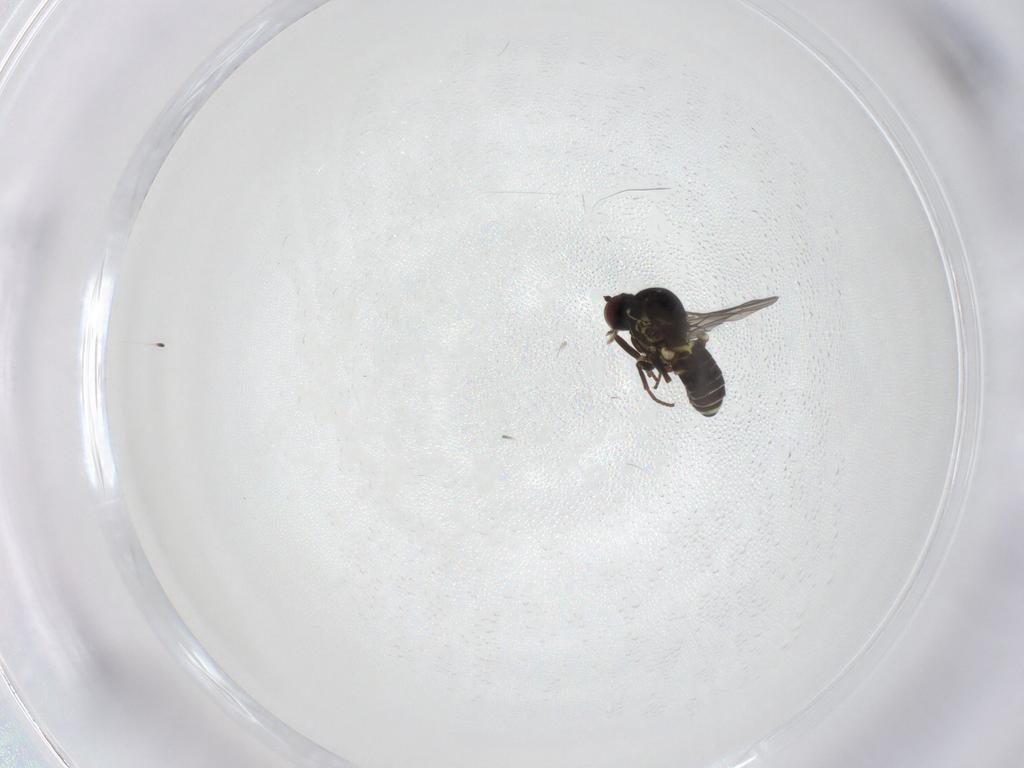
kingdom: Animalia
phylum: Arthropoda
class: Insecta
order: Diptera
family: Bombyliidae
